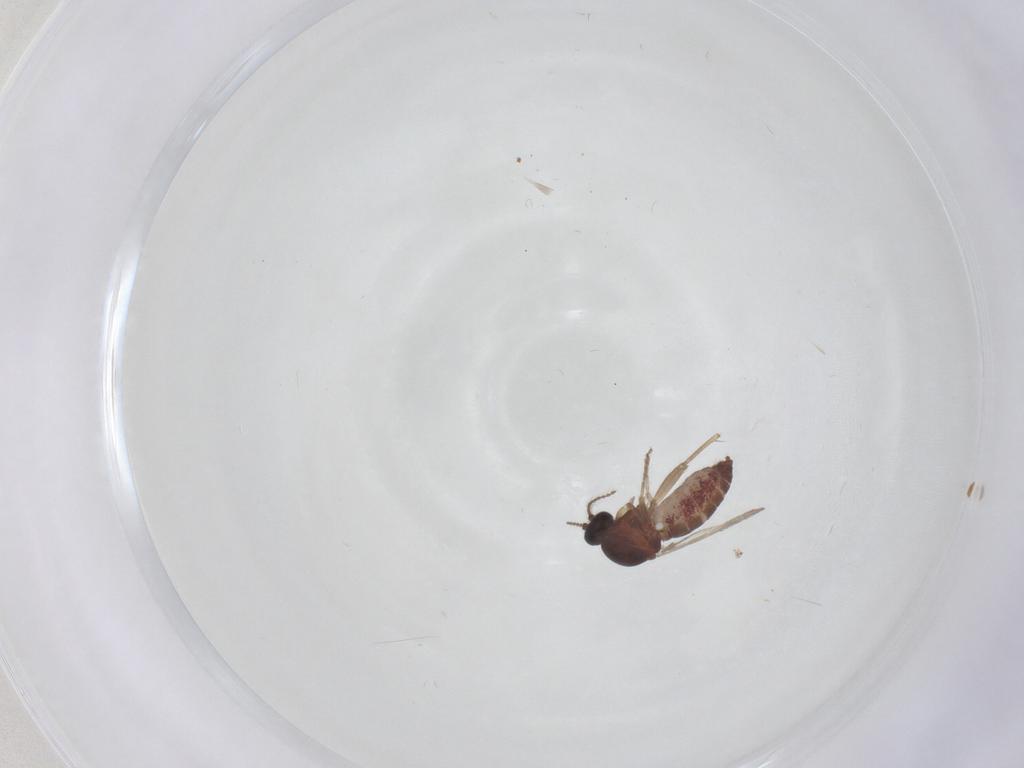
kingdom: Animalia
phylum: Arthropoda
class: Insecta
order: Diptera
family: Ceratopogonidae
